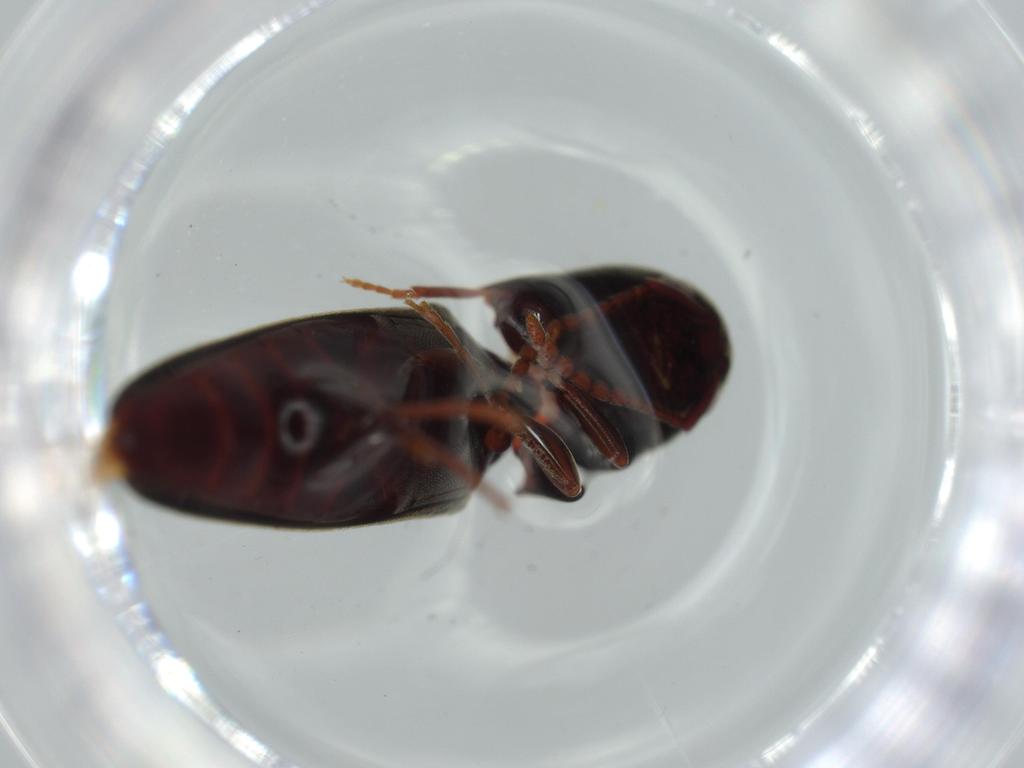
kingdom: Animalia
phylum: Arthropoda
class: Insecta
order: Coleoptera
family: Eucnemidae
